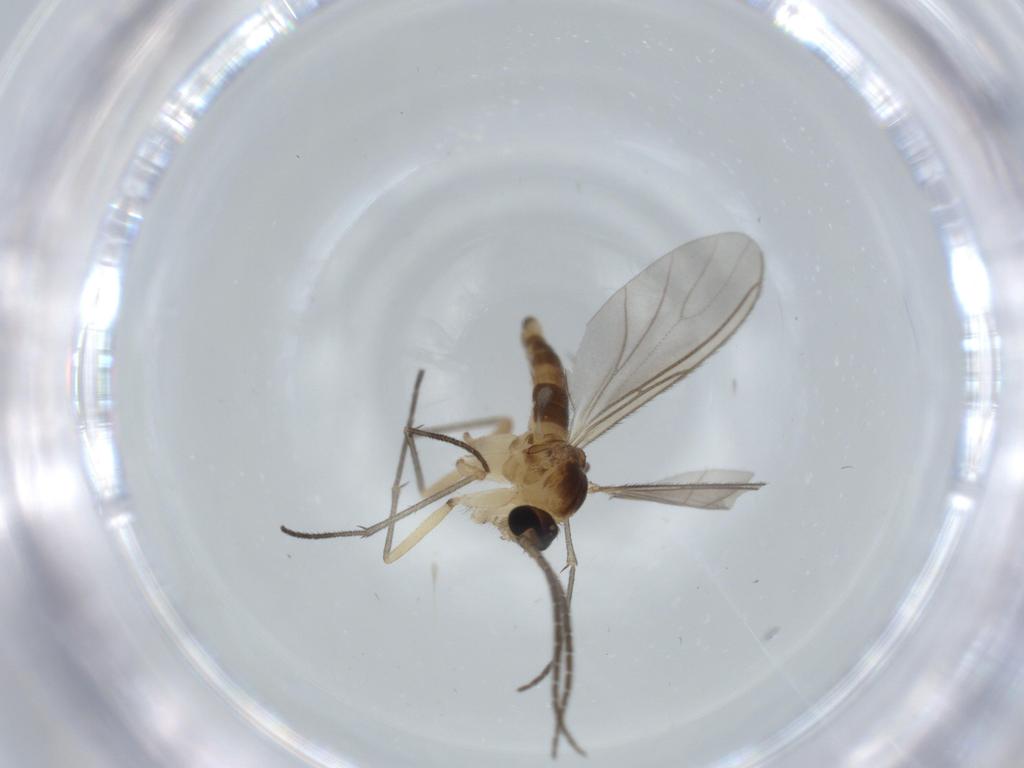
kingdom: Animalia
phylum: Arthropoda
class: Insecta
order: Diptera
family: Sciaridae
